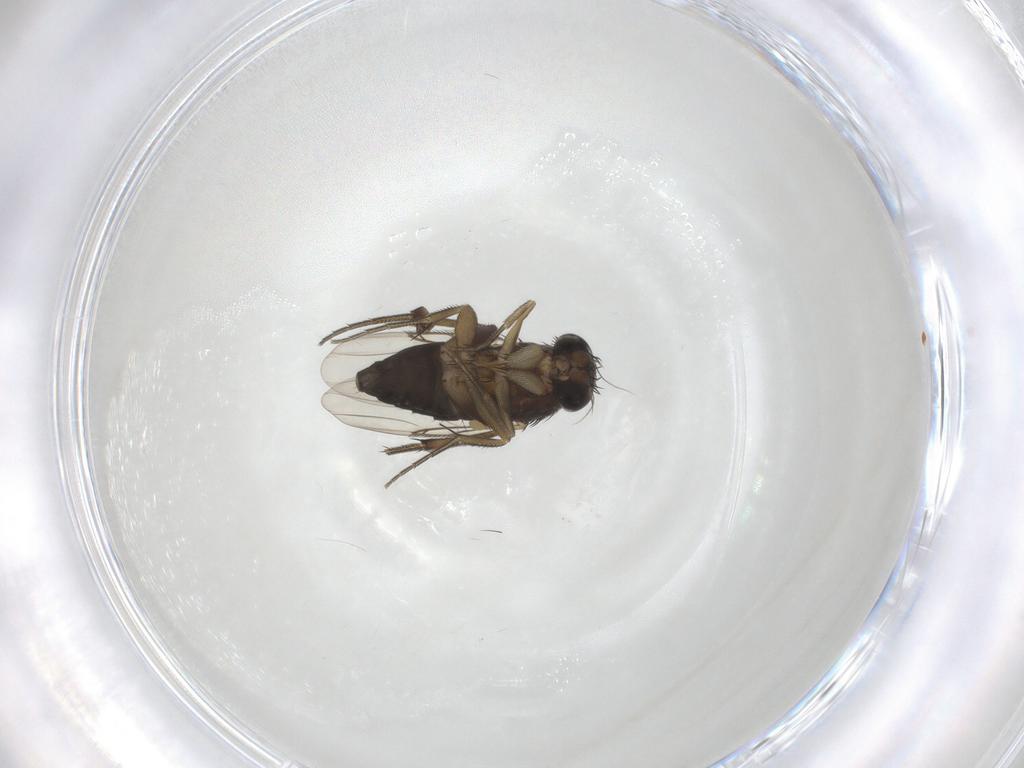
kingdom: Animalia
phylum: Arthropoda
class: Insecta
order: Diptera
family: Phoridae
